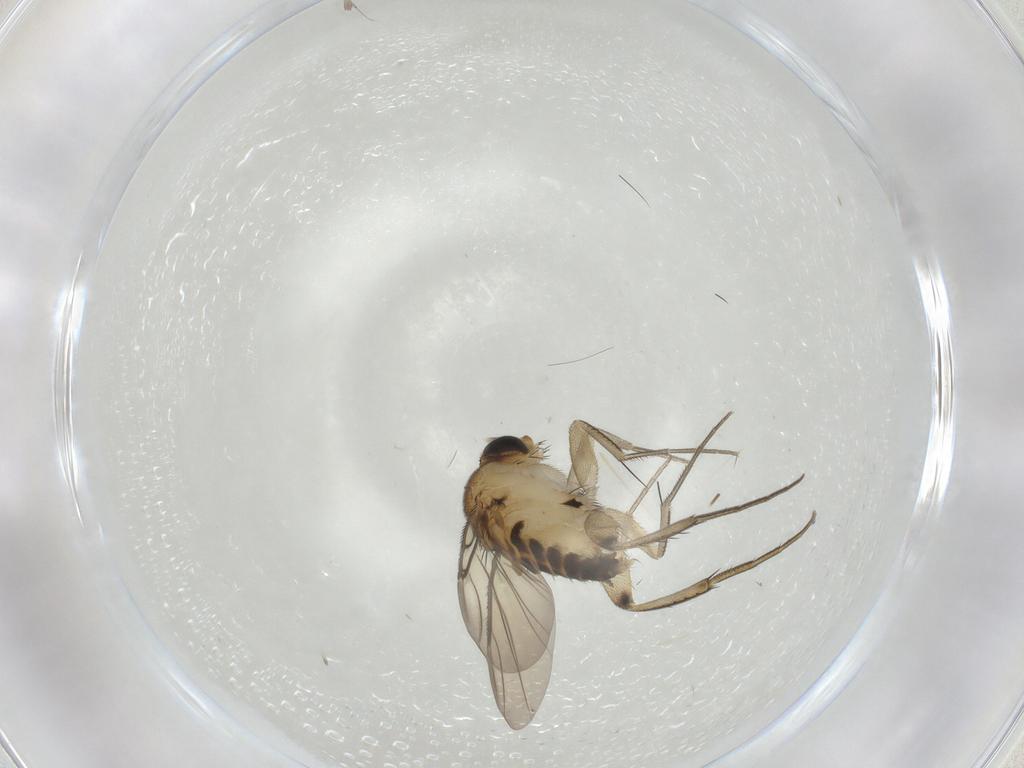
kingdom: Animalia
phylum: Arthropoda
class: Insecta
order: Diptera
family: Phoridae
